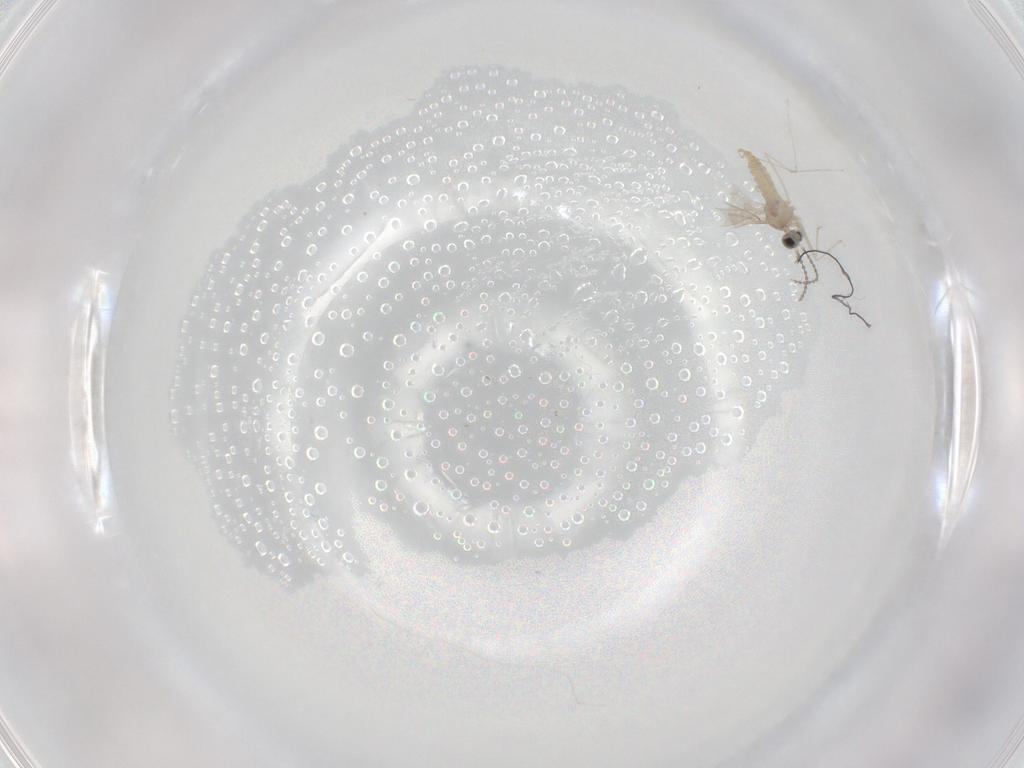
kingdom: Animalia
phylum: Arthropoda
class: Insecta
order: Diptera
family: Cecidomyiidae
